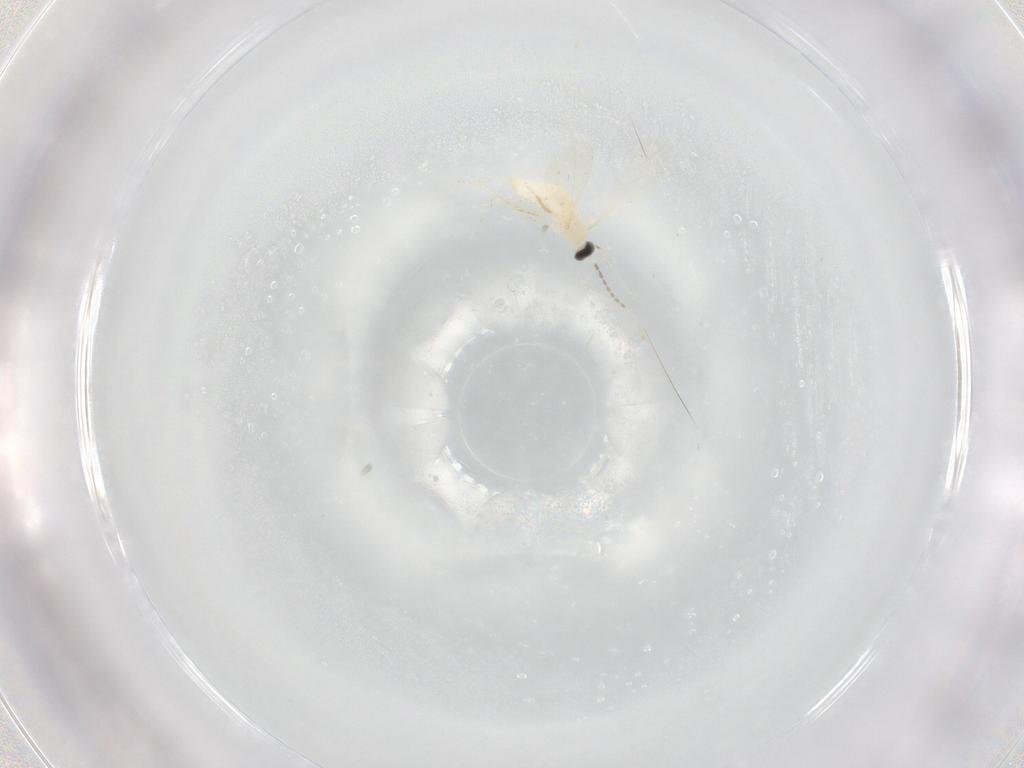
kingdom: Animalia
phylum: Arthropoda
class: Insecta
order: Diptera
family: Cecidomyiidae
